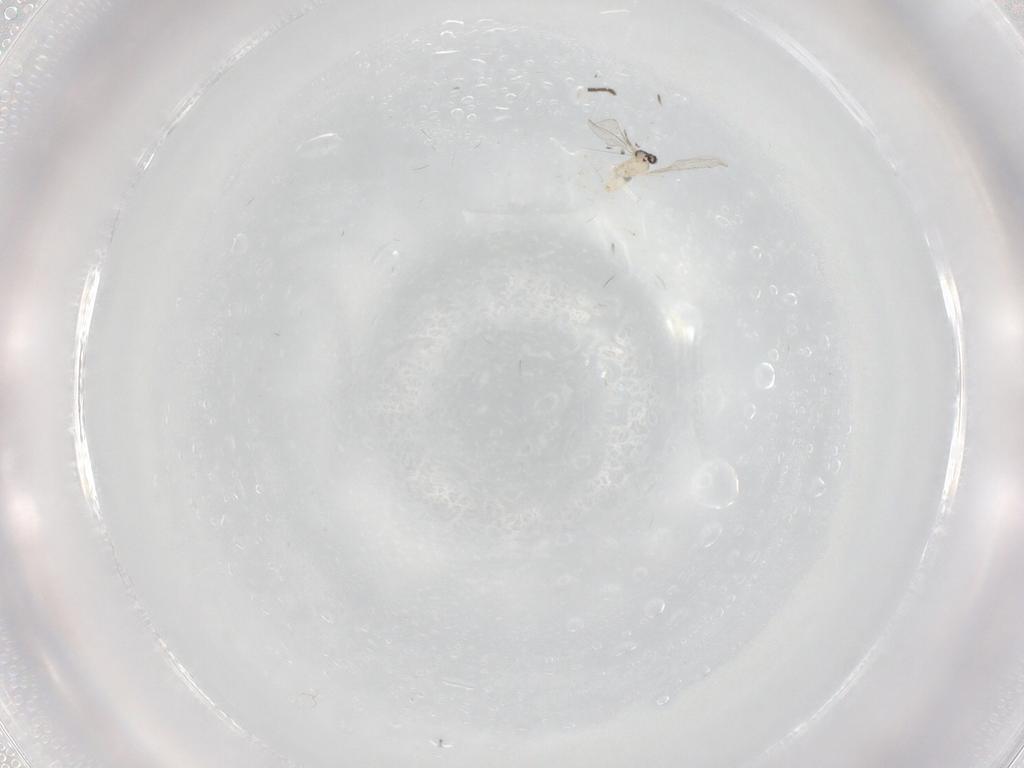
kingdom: Animalia
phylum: Arthropoda
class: Insecta
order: Diptera
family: Cecidomyiidae
